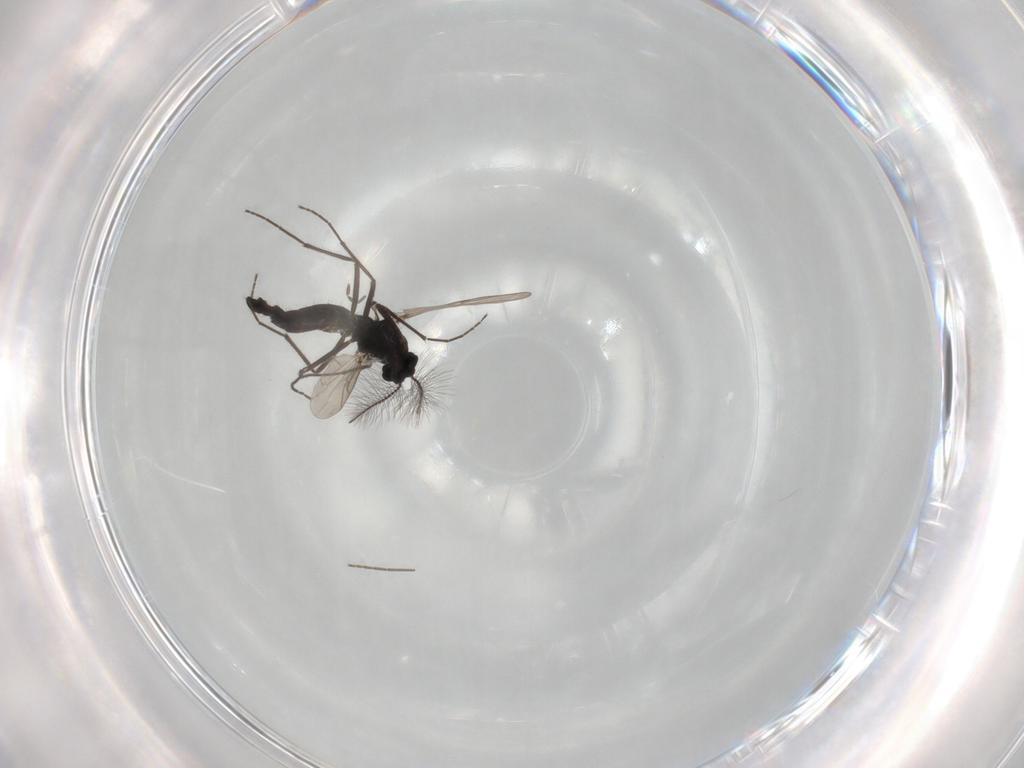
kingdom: Animalia
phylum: Arthropoda
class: Insecta
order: Diptera
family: Chironomidae
